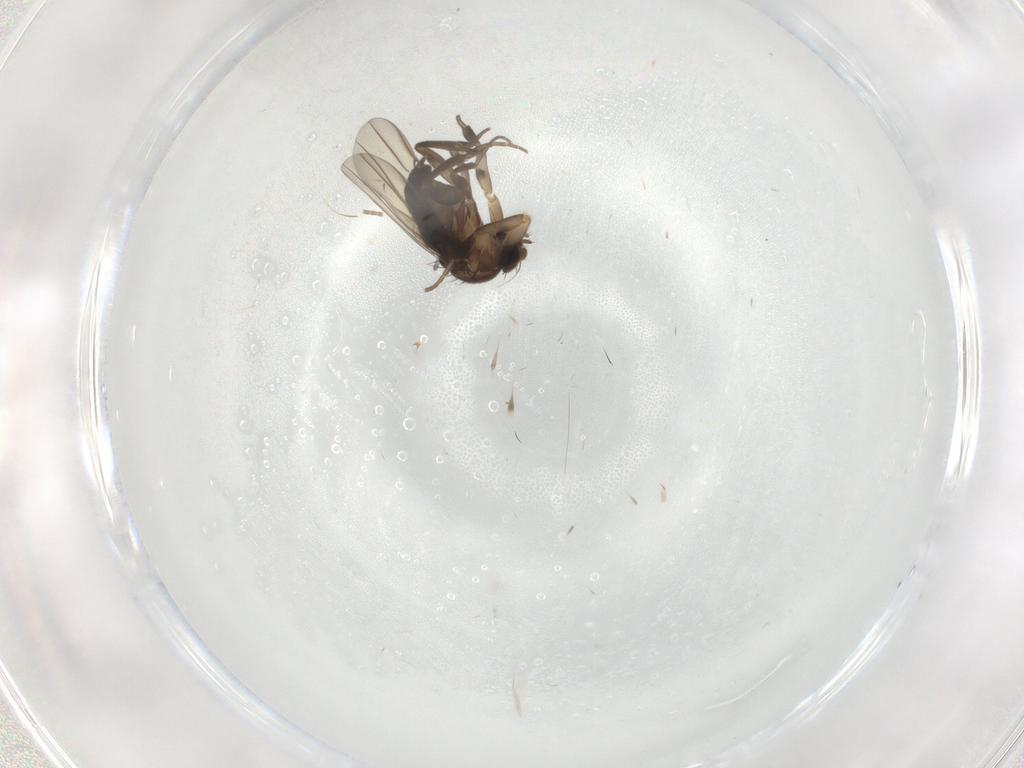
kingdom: Animalia
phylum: Arthropoda
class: Insecta
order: Diptera
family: Phoridae
